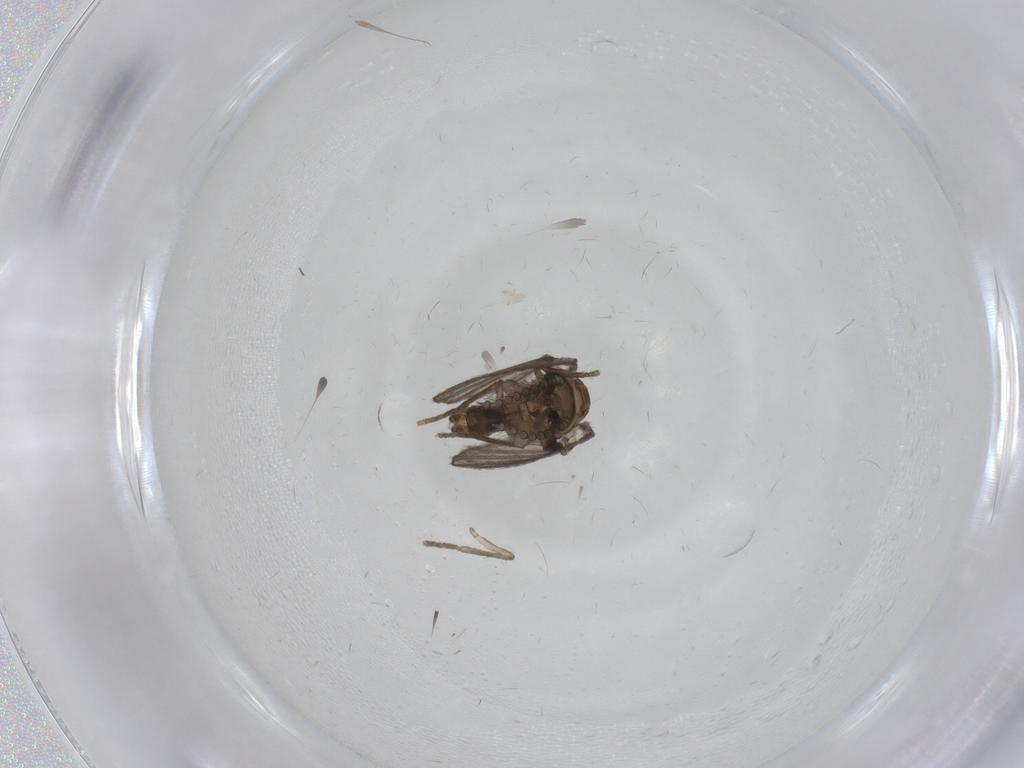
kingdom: Animalia
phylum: Arthropoda
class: Insecta
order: Diptera
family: Psychodidae
